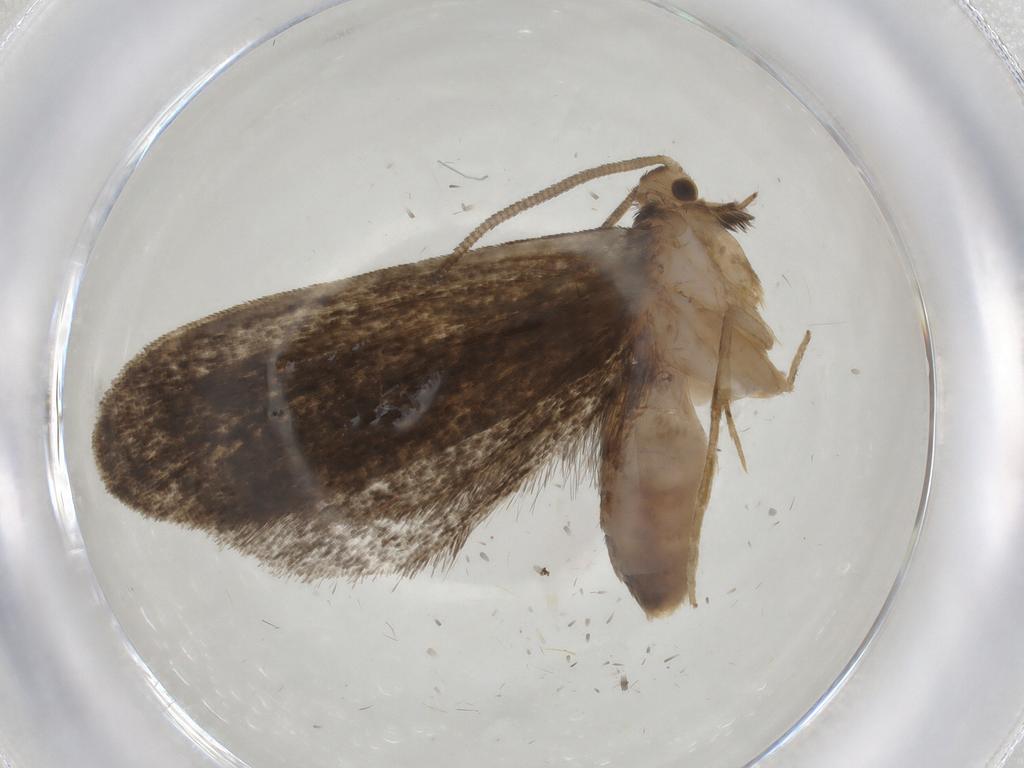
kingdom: Animalia
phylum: Arthropoda
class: Insecta
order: Lepidoptera
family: Dryadaulidae
